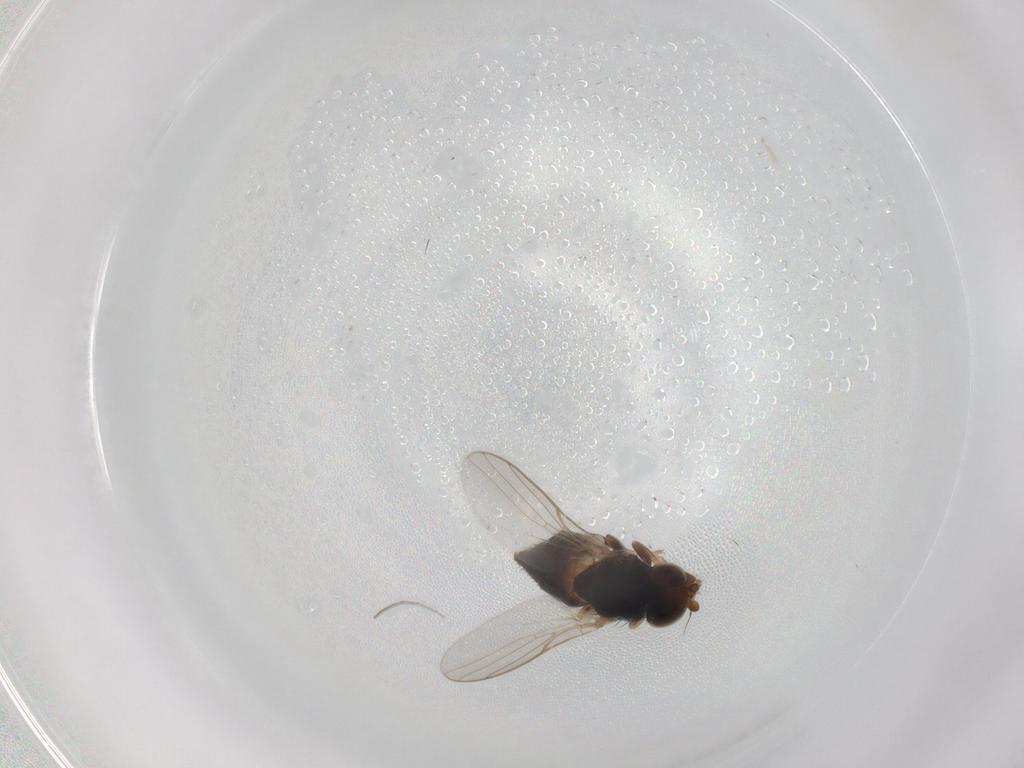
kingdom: Animalia
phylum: Arthropoda
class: Insecta
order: Diptera
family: Chloropidae
